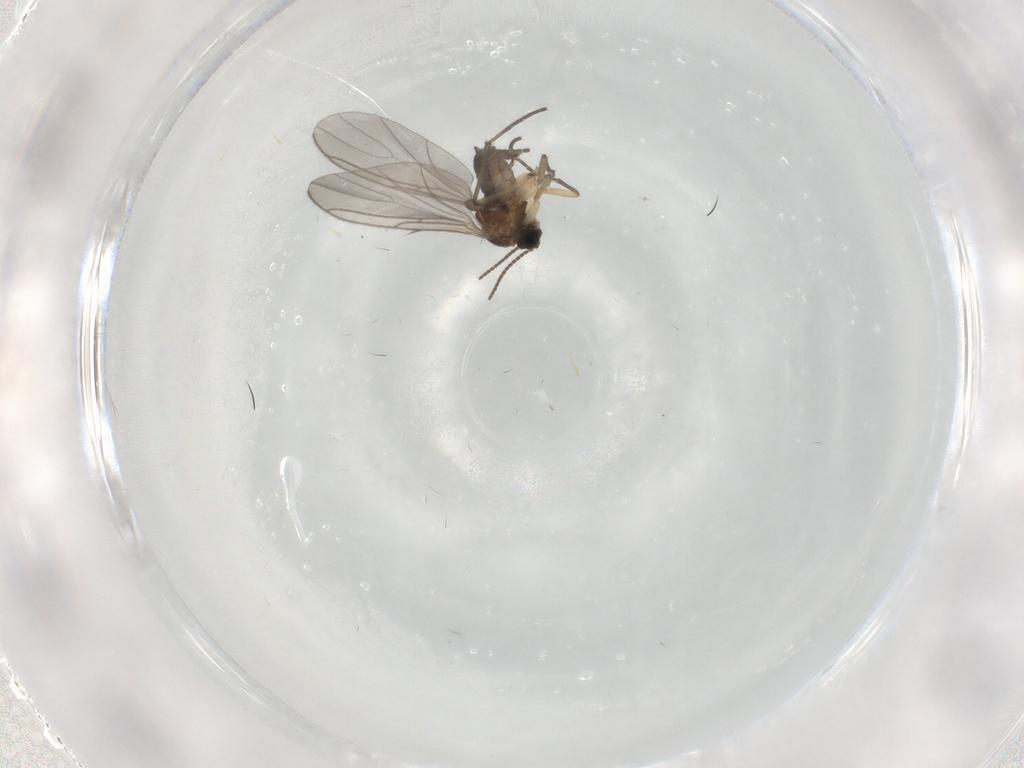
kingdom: Animalia
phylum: Arthropoda
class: Insecta
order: Diptera
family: Sciaridae
